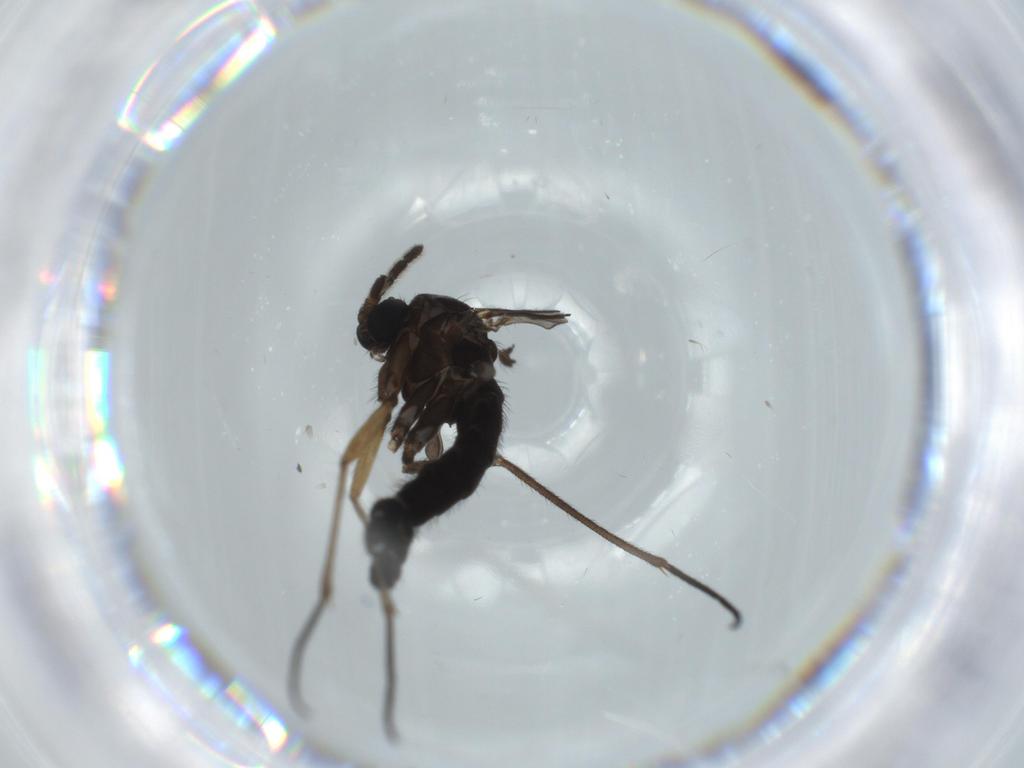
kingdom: Animalia
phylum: Arthropoda
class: Insecta
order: Diptera
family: Sciaridae
